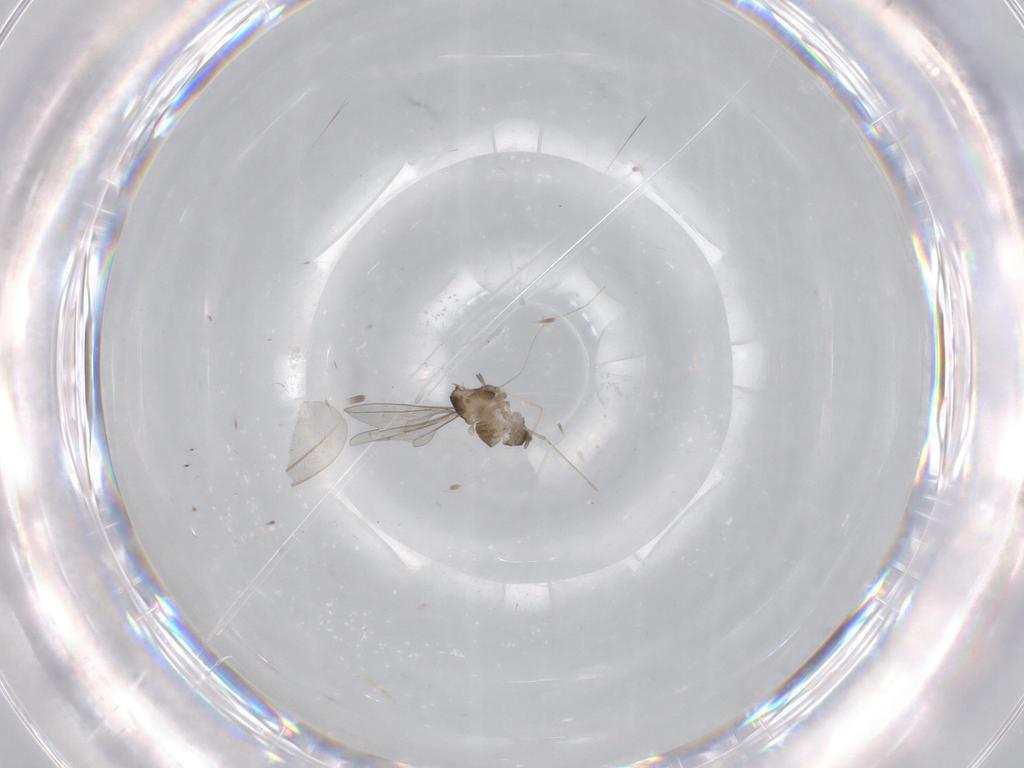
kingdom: Animalia
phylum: Arthropoda
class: Insecta
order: Diptera
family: Cecidomyiidae
